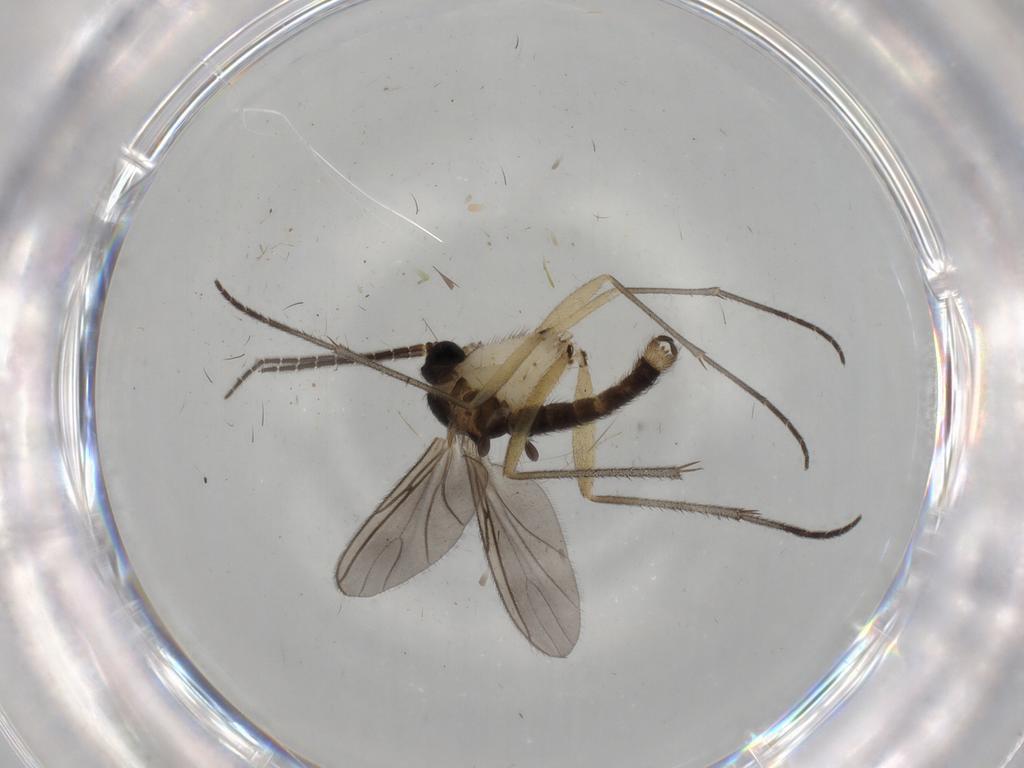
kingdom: Animalia
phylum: Arthropoda
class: Insecta
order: Diptera
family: Sciaridae
